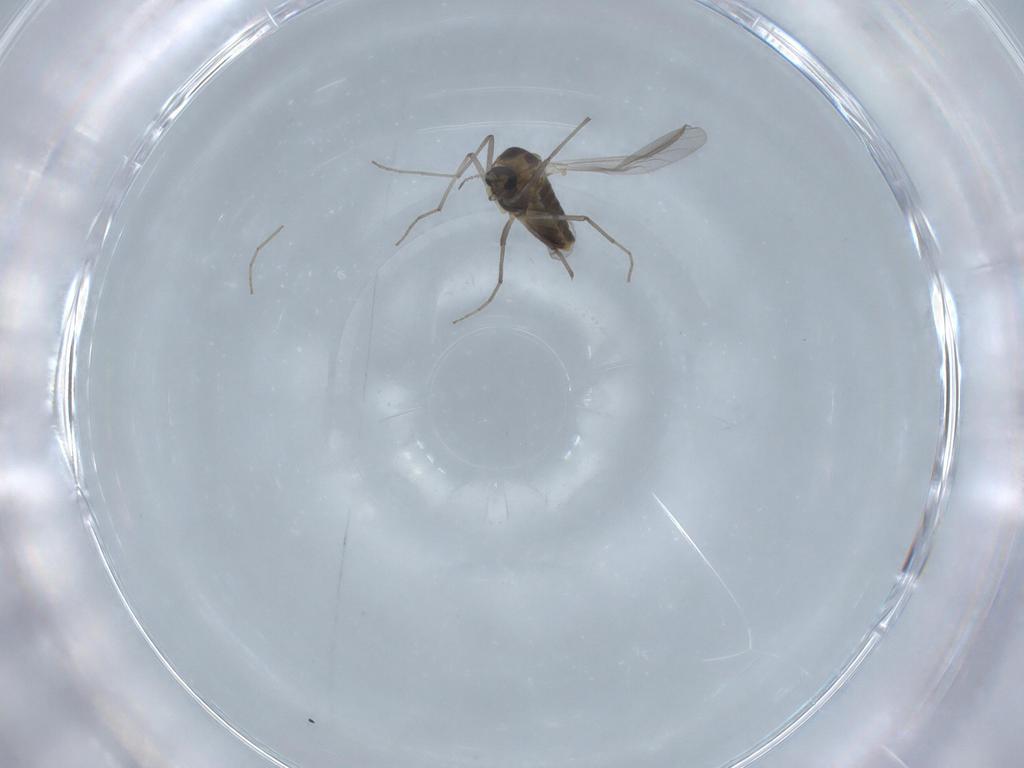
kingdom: Animalia
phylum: Arthropoda
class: Insecta
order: Diptera
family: Chironomidae
